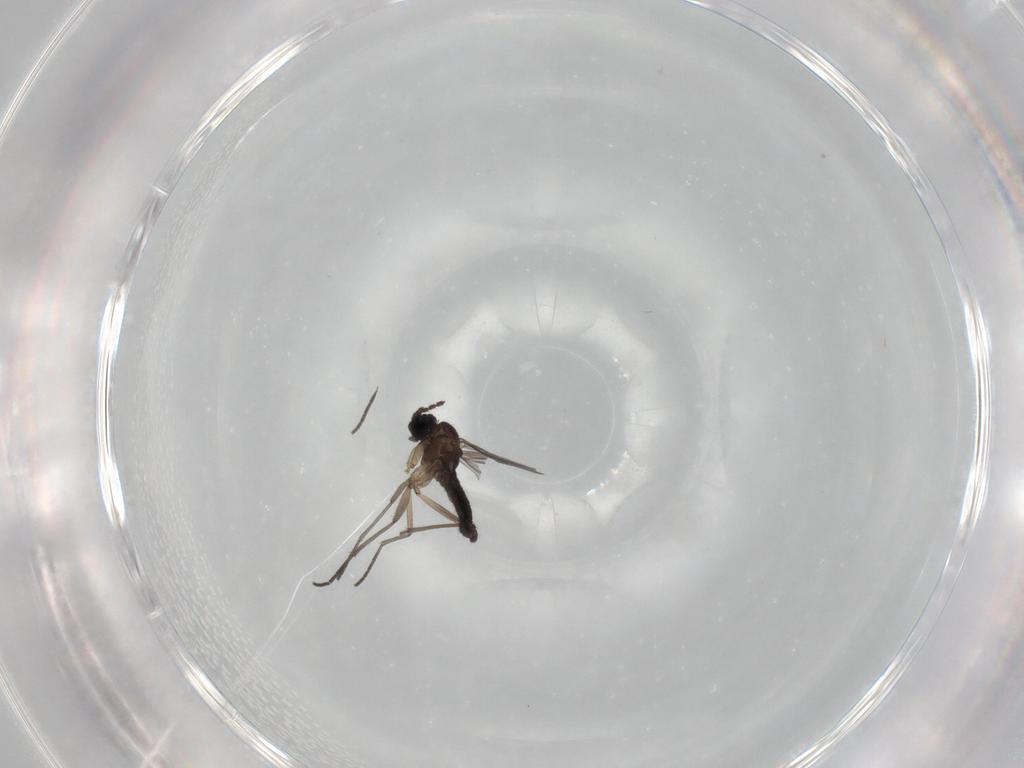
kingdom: Animalia
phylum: Arthropoda
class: Insecta
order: Diptera
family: Sciaridae
